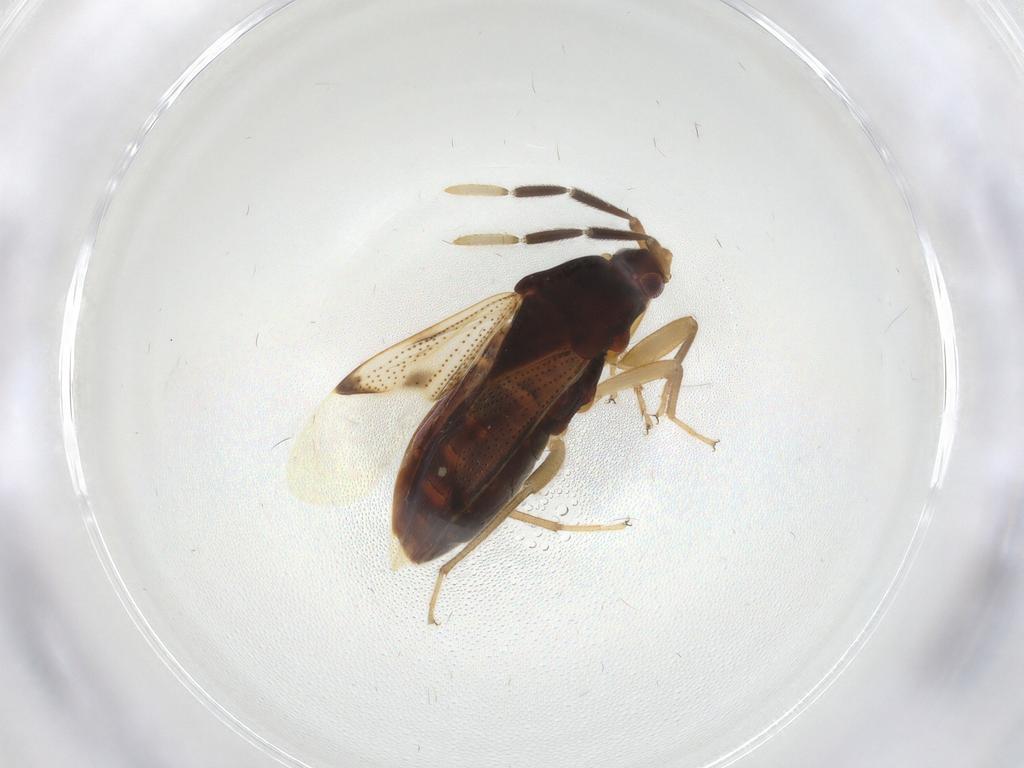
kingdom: Animalia
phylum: Arthropoda
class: Insecta
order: Hemiptera
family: Rhyparochromidae
